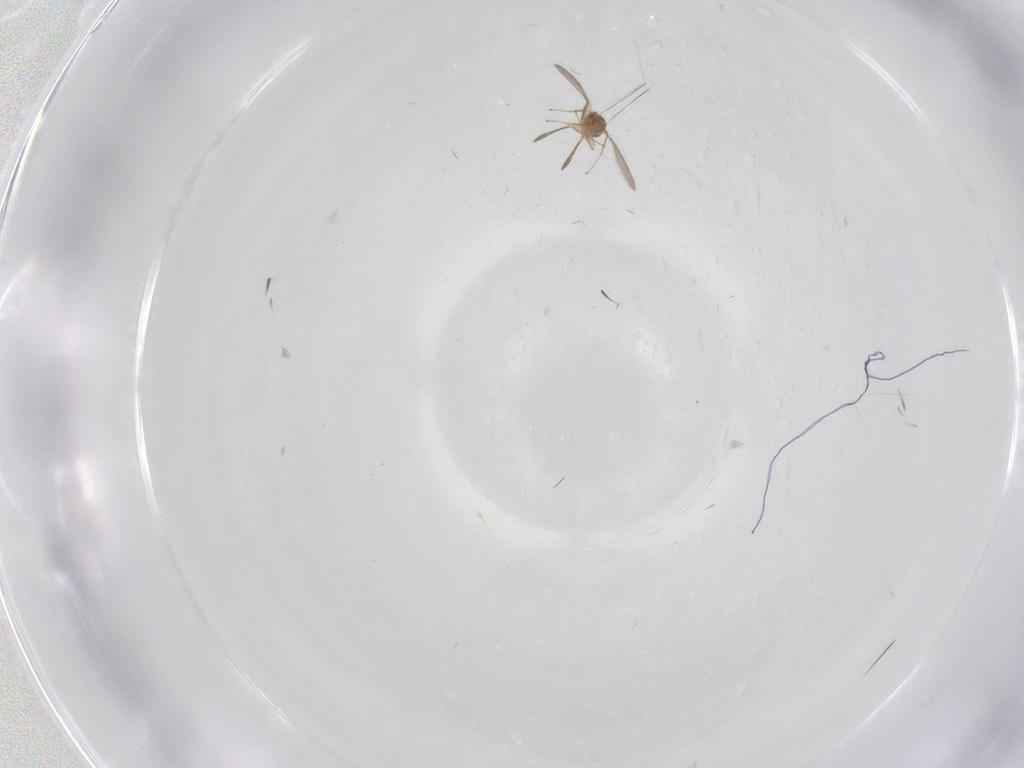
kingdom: Animalia
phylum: Arthropoda
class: Insecta
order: Hymenoptera
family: Mymaridae
